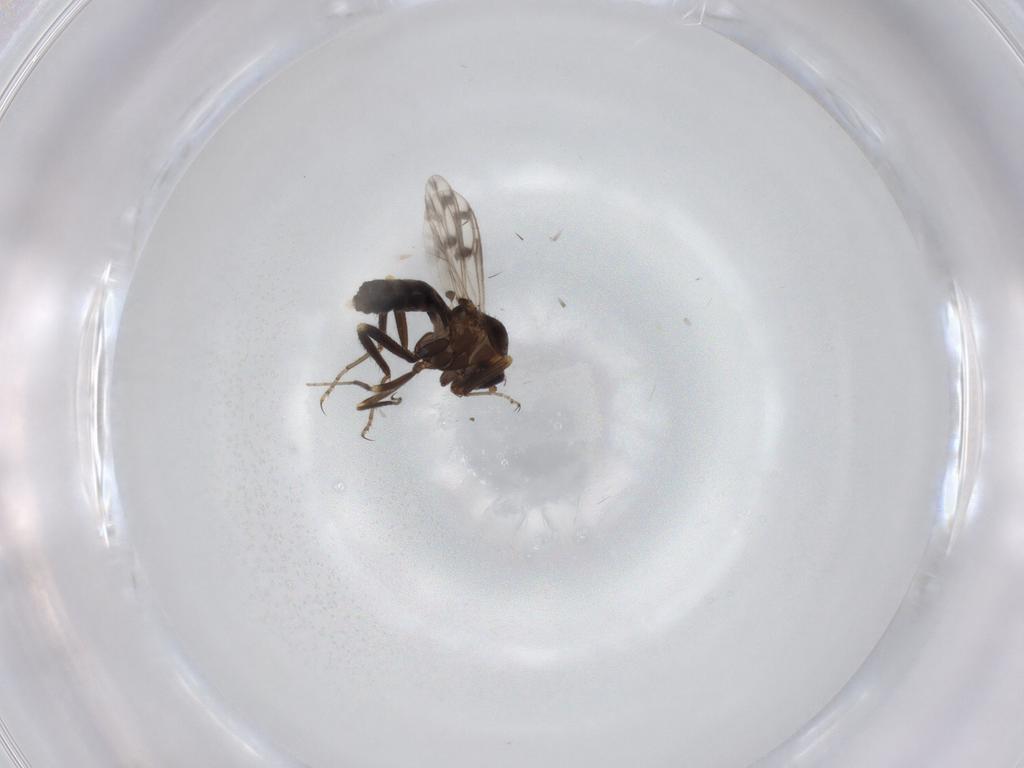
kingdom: Animalia
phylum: Arthropoda
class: Insecta
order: Diptera
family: Ceratopogonidae
